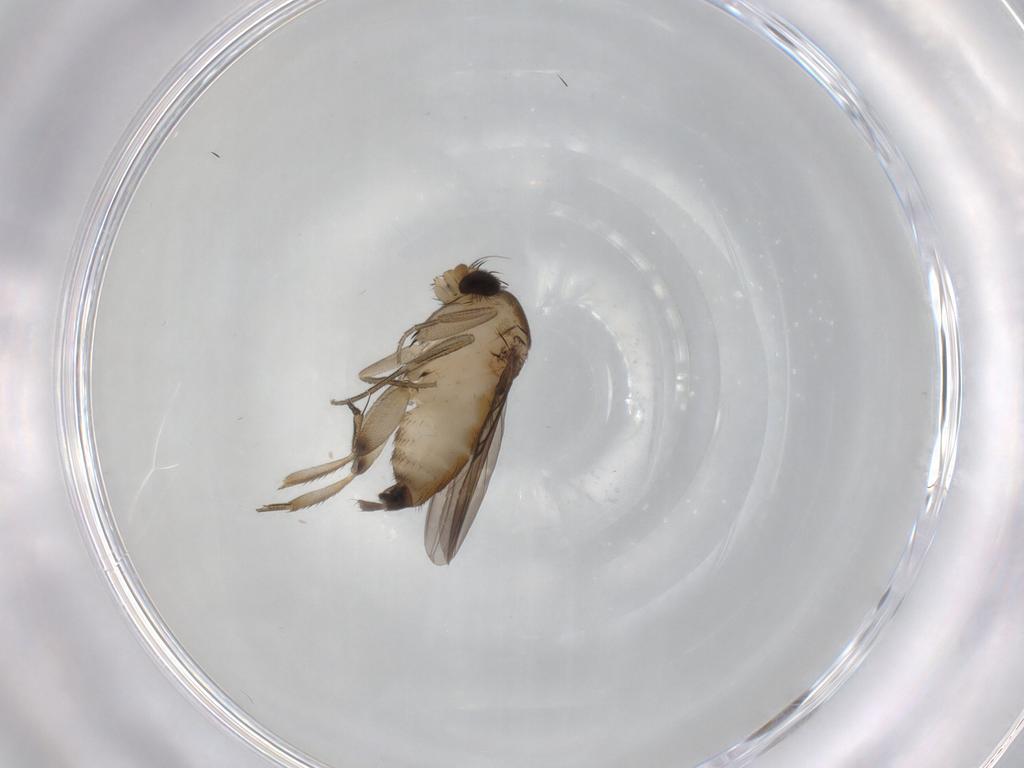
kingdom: Animalia
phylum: Arthropoda
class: Insecta
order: Diptera
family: Phoridae
